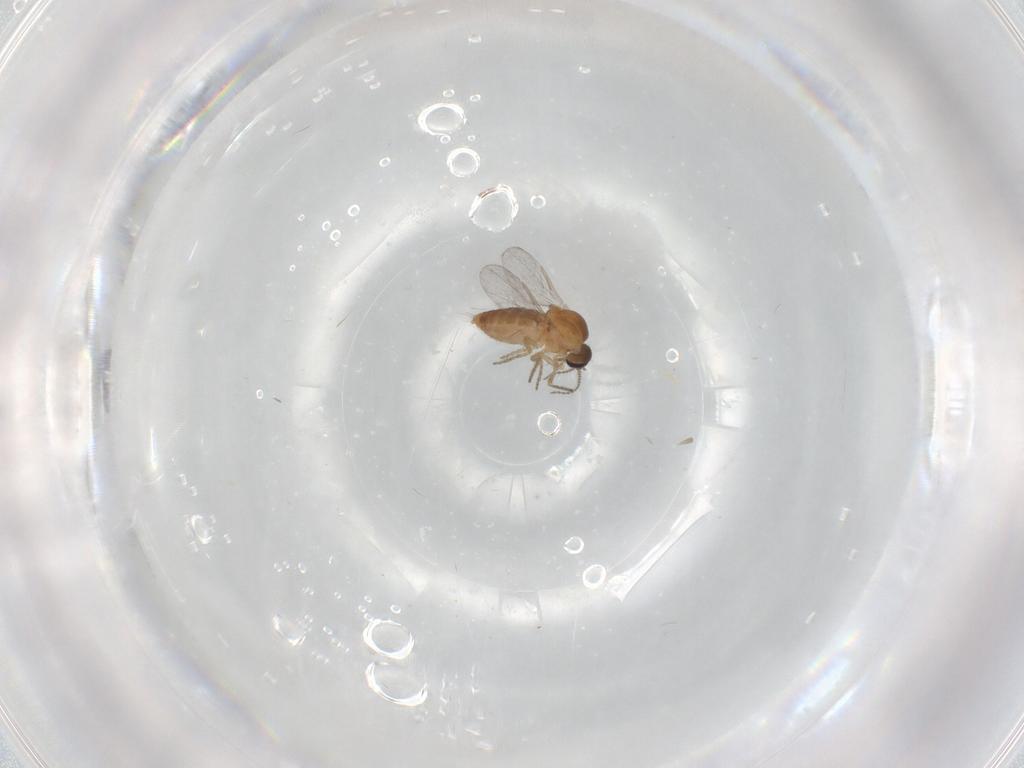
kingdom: Animalia
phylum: Arthropoda
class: Insecta
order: Diptera
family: Ceratopogonidae
